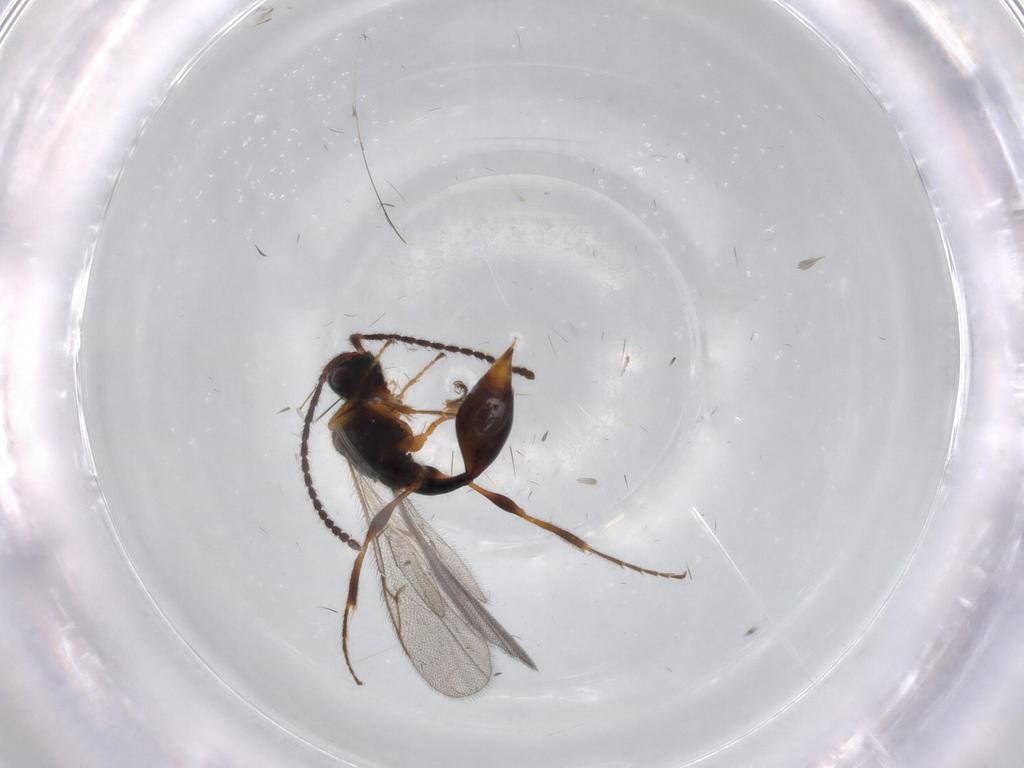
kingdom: Animalia
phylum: Arthropoda
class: Insecta
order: Hymenoptera
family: Diapriidae
